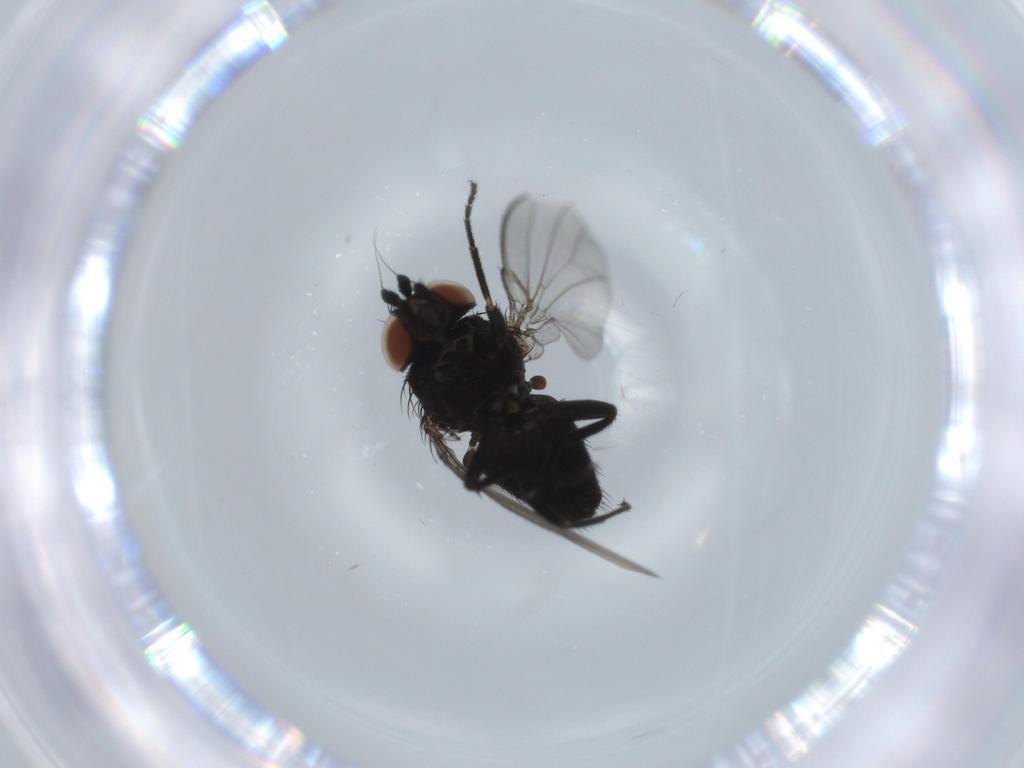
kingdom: Animalia
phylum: Arthropoda
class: Insecta
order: Diptera
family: Milichiidae
